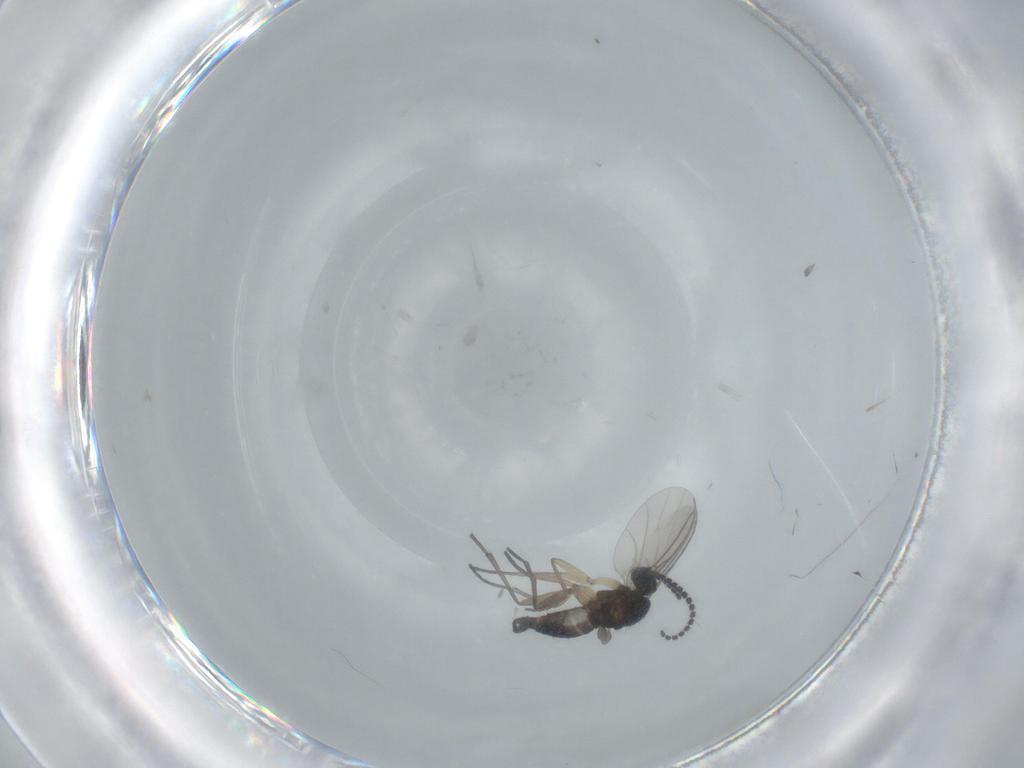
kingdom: Animalia
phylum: Arthropoda
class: Insecta
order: Diptera
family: Sciaridae
